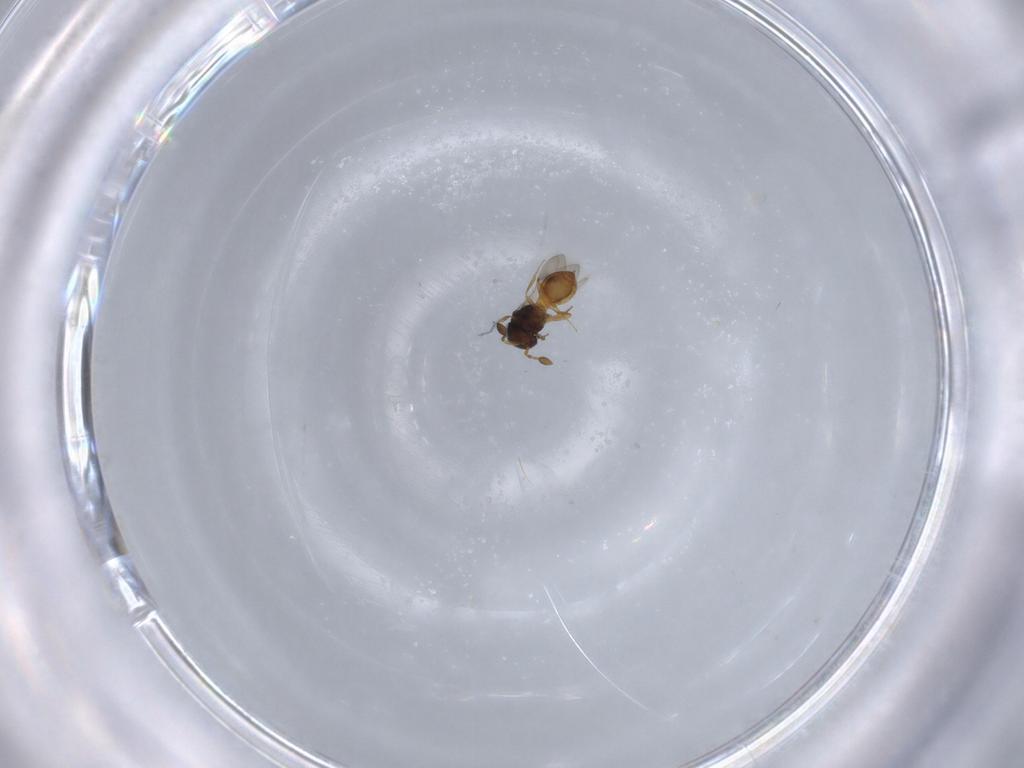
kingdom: Animalia
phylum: Arthropoda
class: Insecta
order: Hymenoptera
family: Scelionidae
